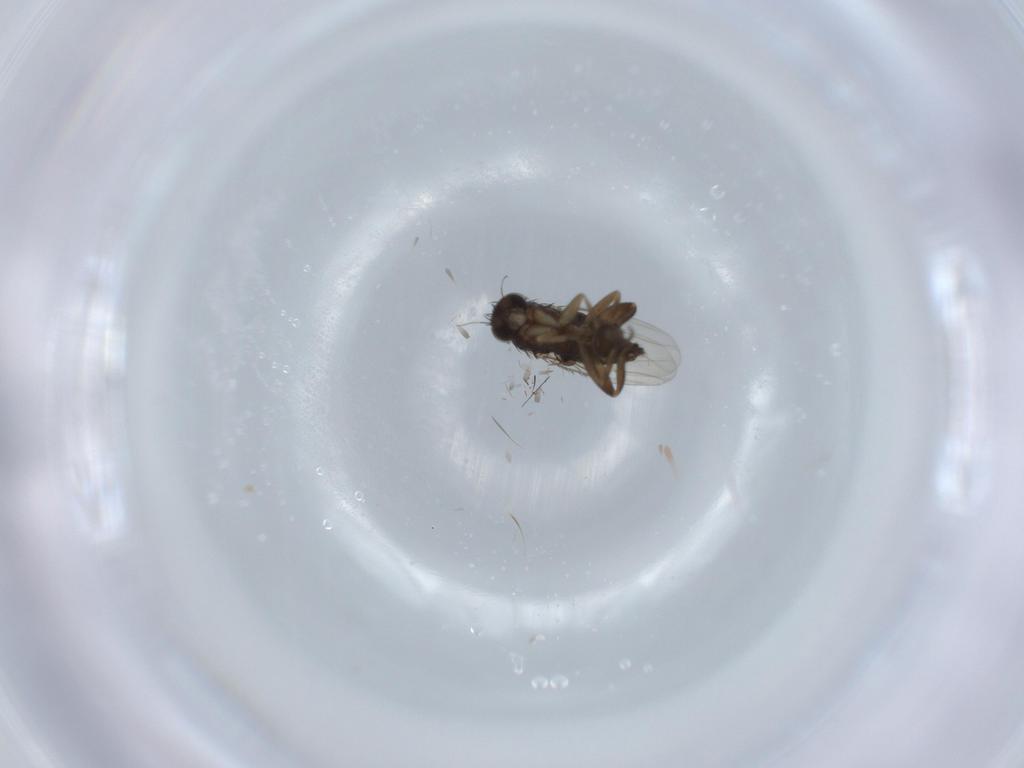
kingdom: Animalia
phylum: Arthropoda
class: Insecta
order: Diptera
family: Phoridae
